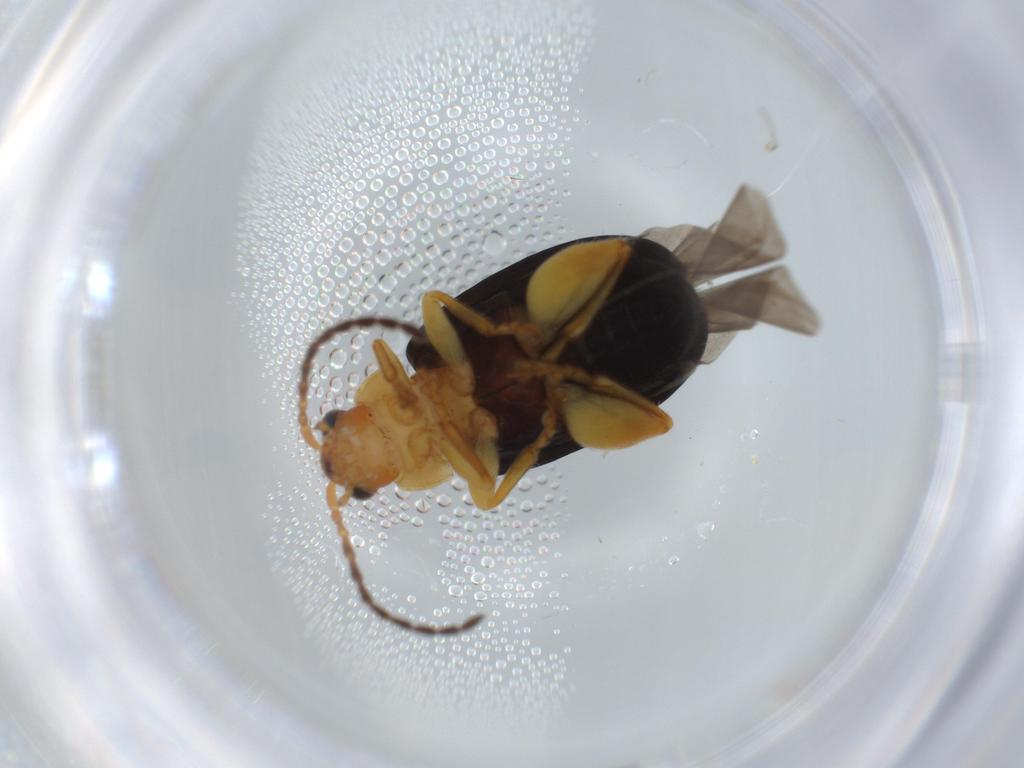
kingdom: Animalia
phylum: Arthropoda
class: Insecta
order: Coleoptera
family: Chrysomelidae
